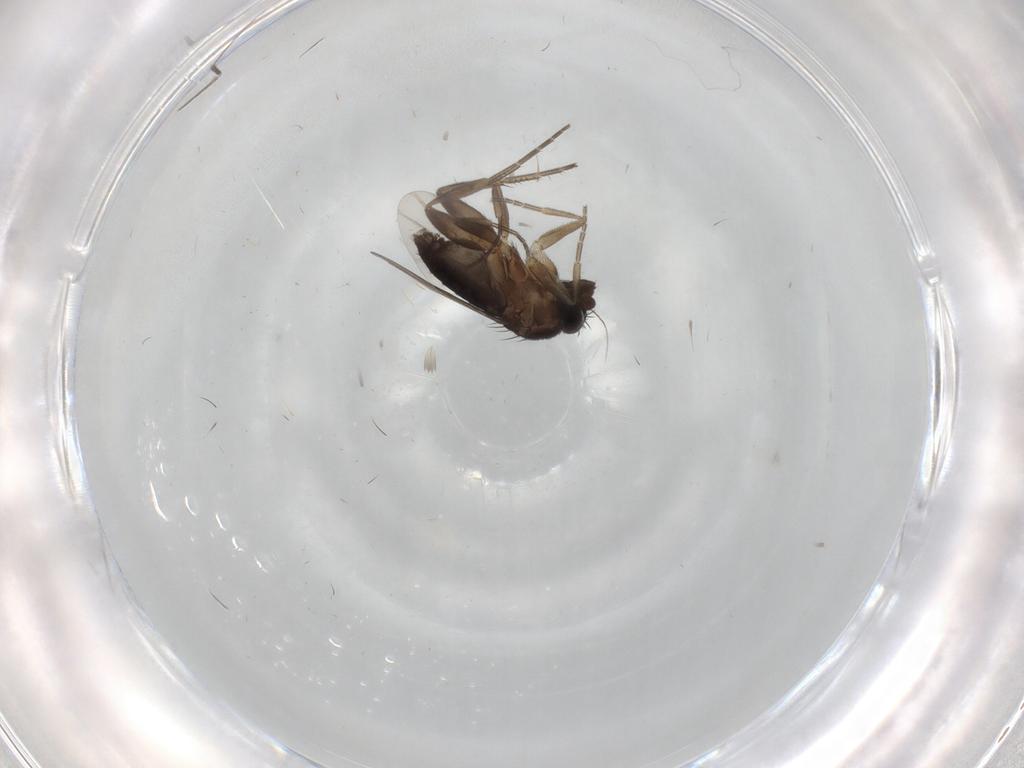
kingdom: Animalia
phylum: Arthropoda
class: Insecta
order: Diptera
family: Phoridae
